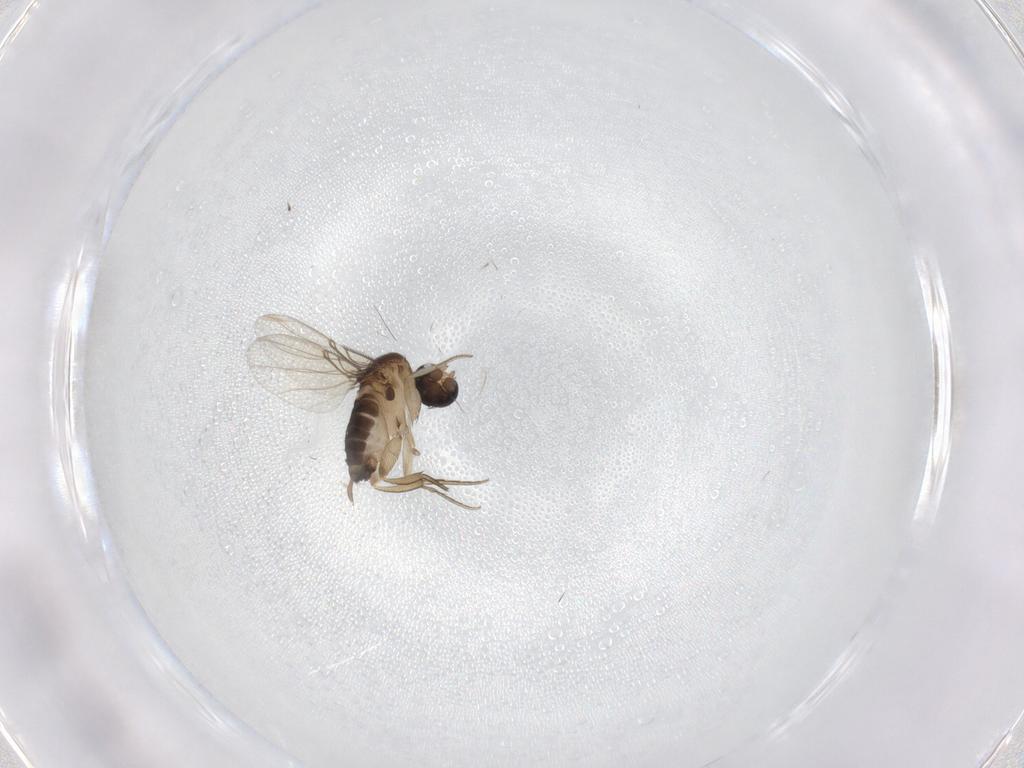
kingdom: Animalia
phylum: Arthropoda
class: Insecta
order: Diptera
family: Phoridae
